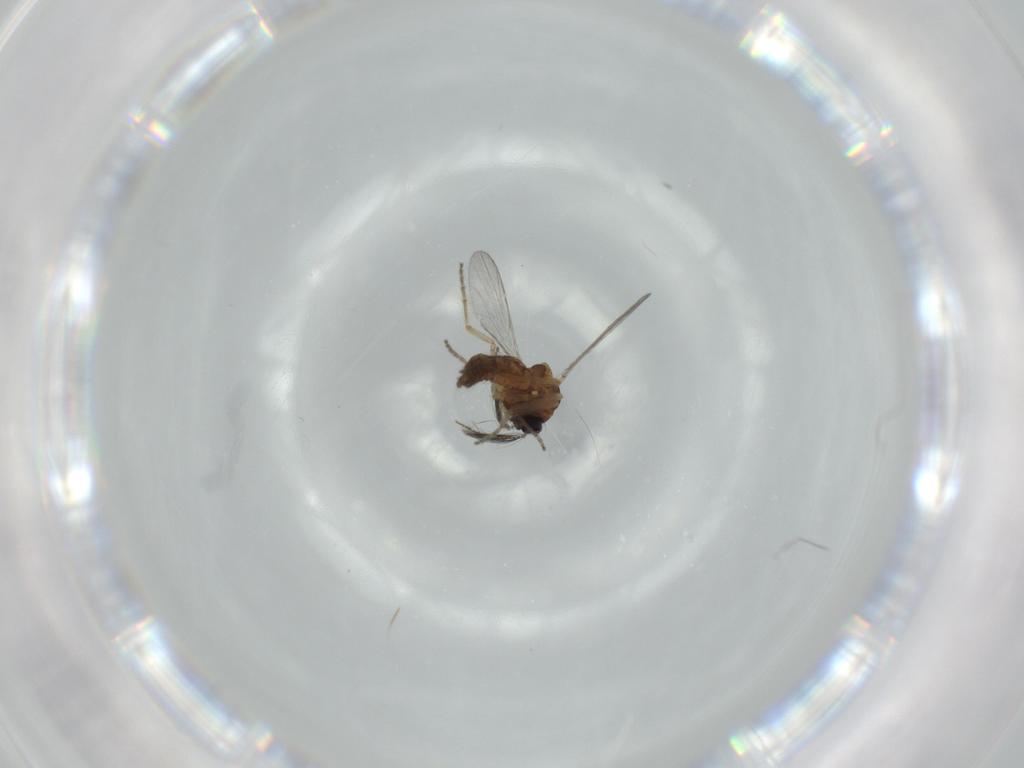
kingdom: Animalia
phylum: Arthropoda
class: Insecta
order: Diptera
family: Ceratopogonidae
